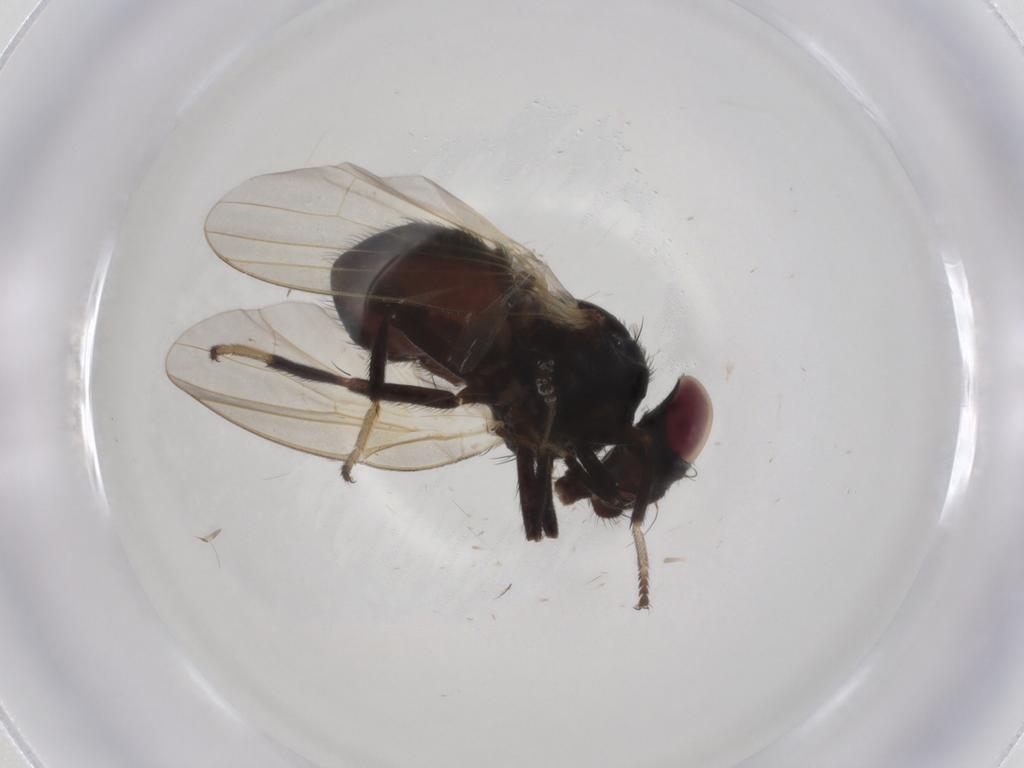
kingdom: Animalia
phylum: Arthropoda
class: Insecta
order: Diptera
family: Lonchaeidae
